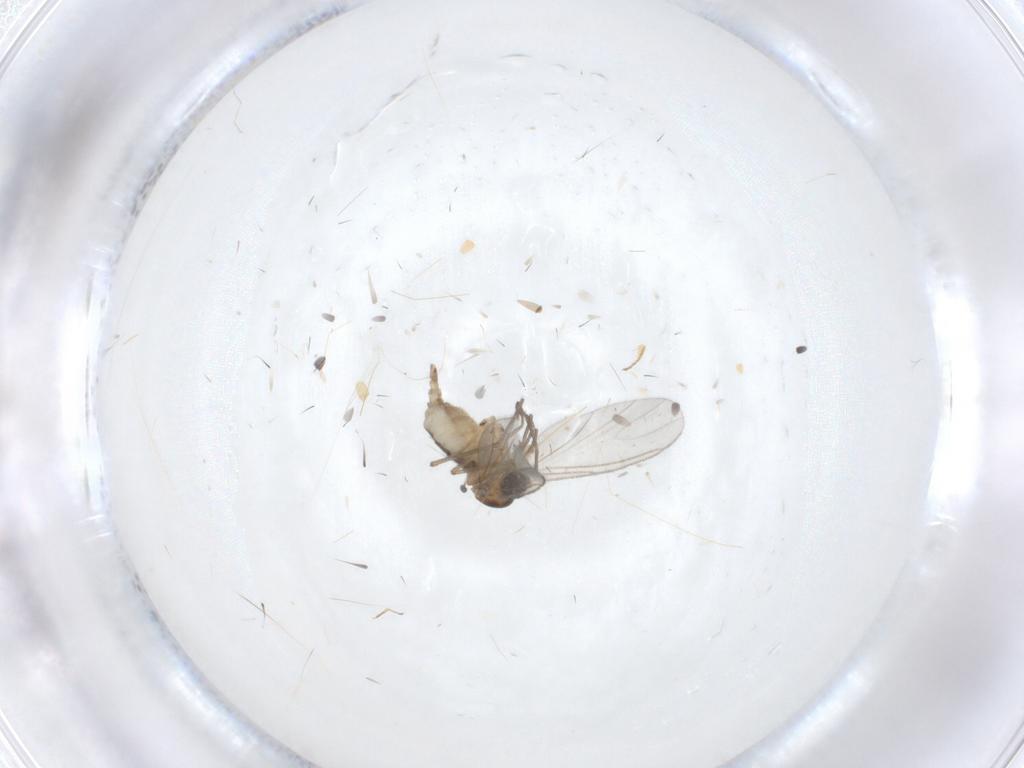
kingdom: Animalia
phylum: Arthropoda
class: Insecta
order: Diptera
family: Sciaridae
